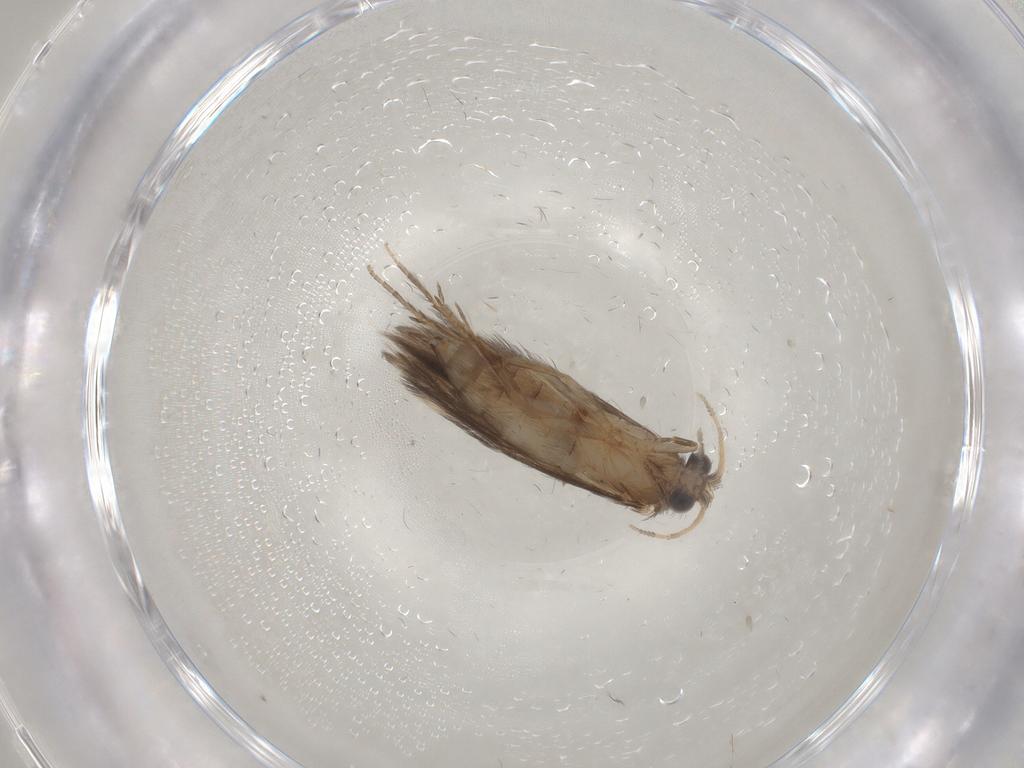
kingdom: Animalia
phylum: Arthropoda
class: Insecta
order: Trichoptera
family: Hydroptilidae
